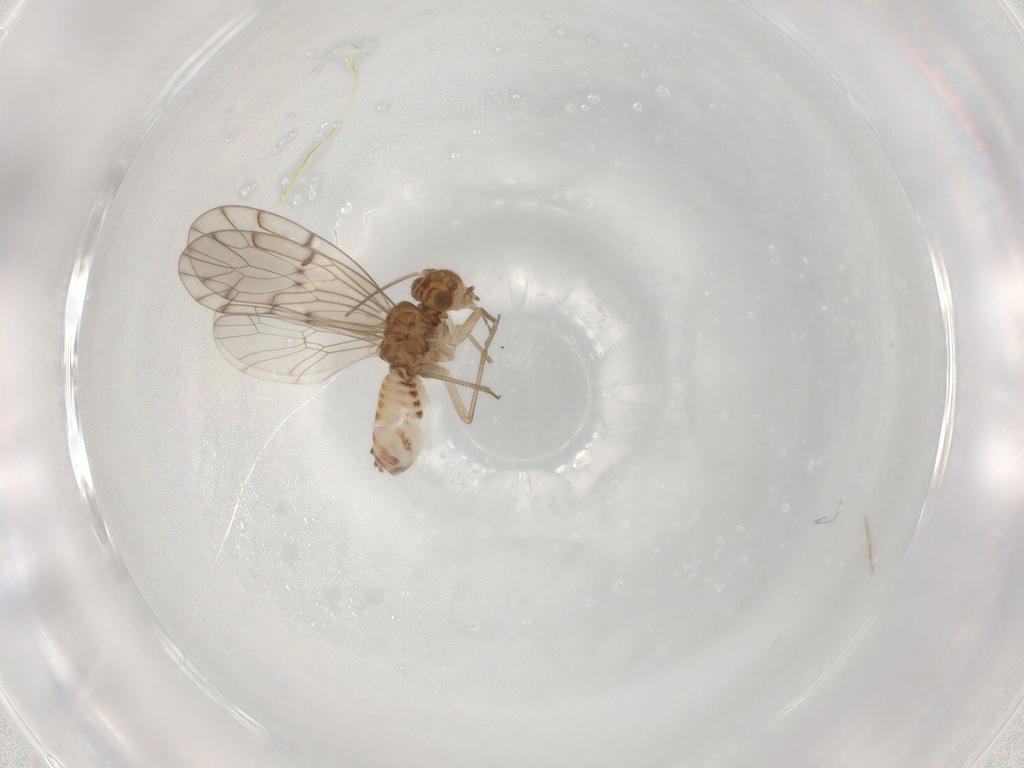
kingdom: Animalia
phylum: Arthropoda
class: Insecta
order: Psocodea
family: Ectopsocidae
